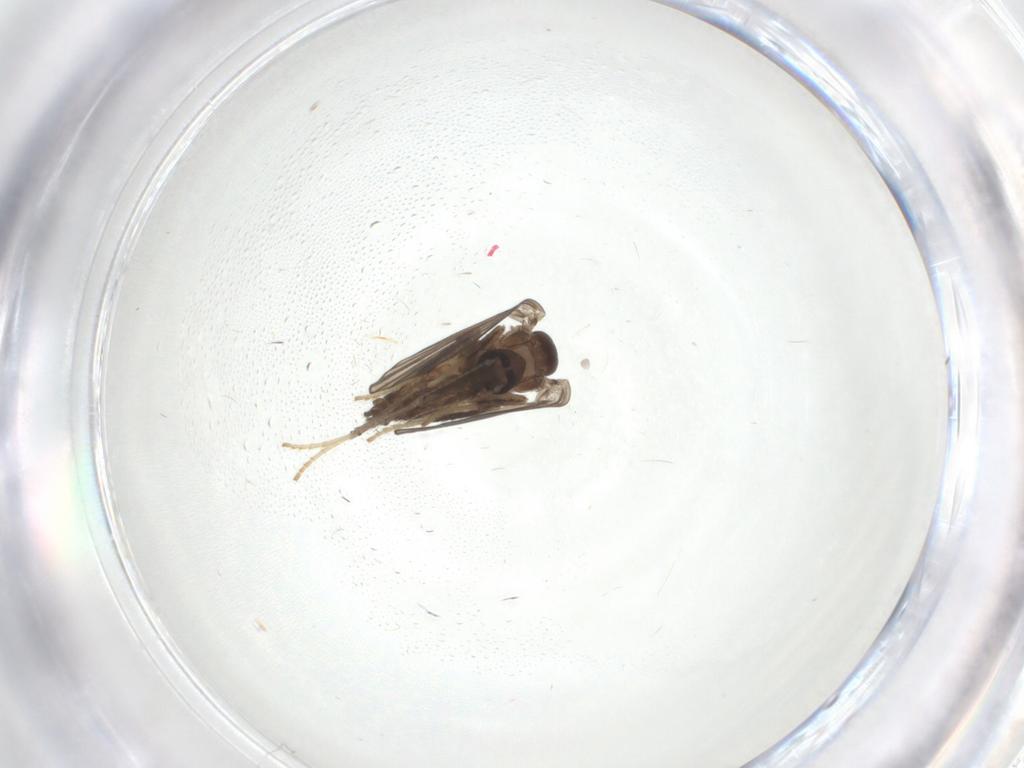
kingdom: Animalia
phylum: Arthropoda
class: Insecta
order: Diptera
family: Psychodidae
